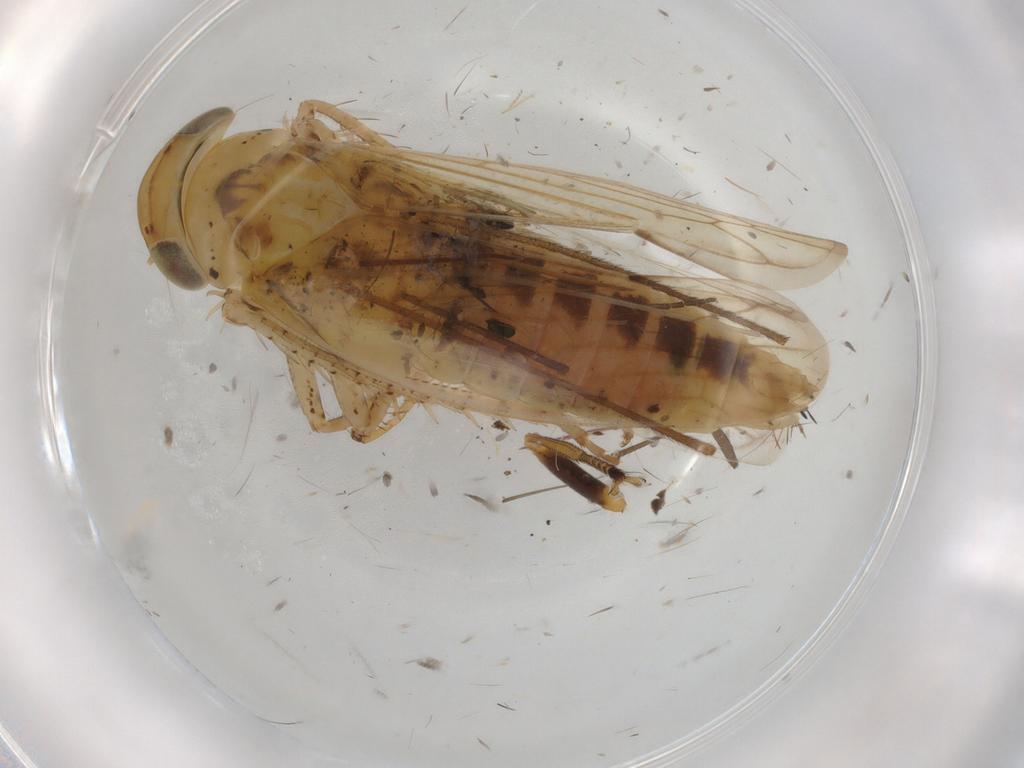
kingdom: Animalia
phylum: Arthropoda
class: Insecta
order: Hemiptera
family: Cicadellidae
